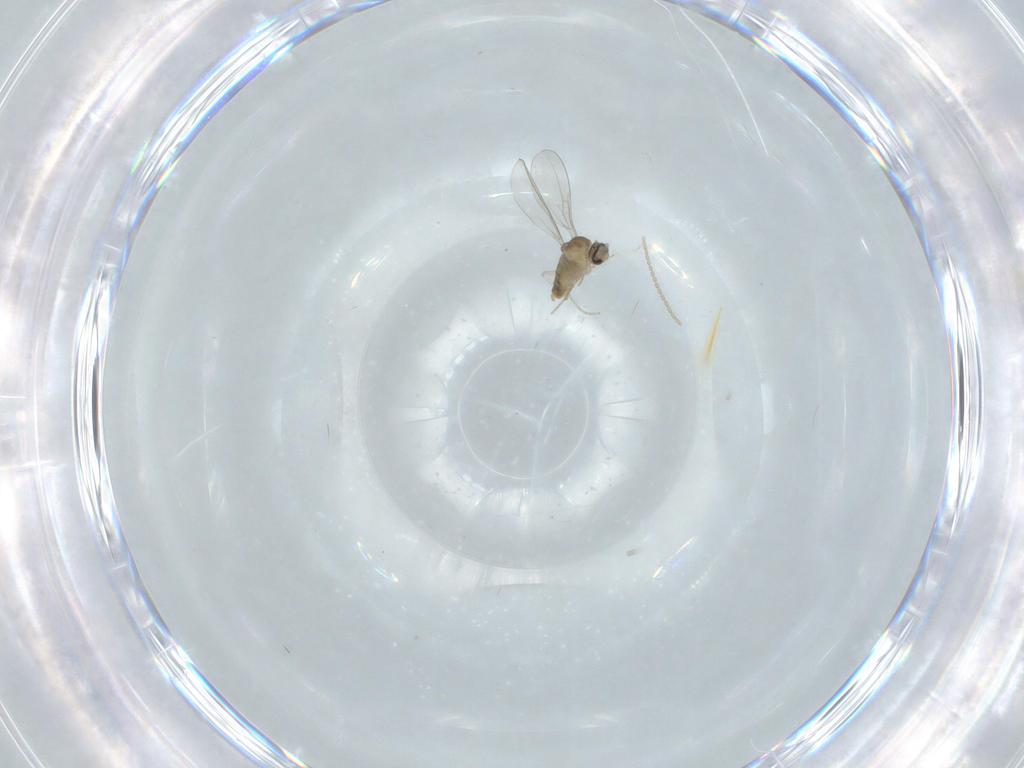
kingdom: Animalia
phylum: Arthropoda
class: Insecta
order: Diptera
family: Cecidomyiidae
